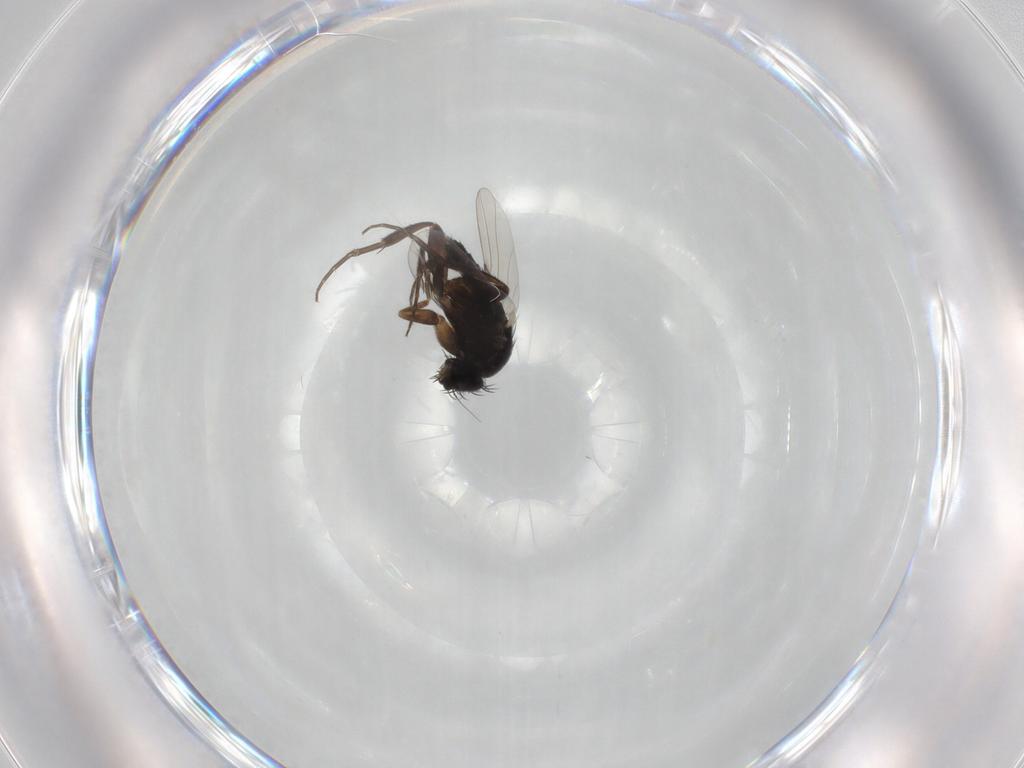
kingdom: Animalia
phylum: Arthropoda
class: Insecta
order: Diptera
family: Phoridae
